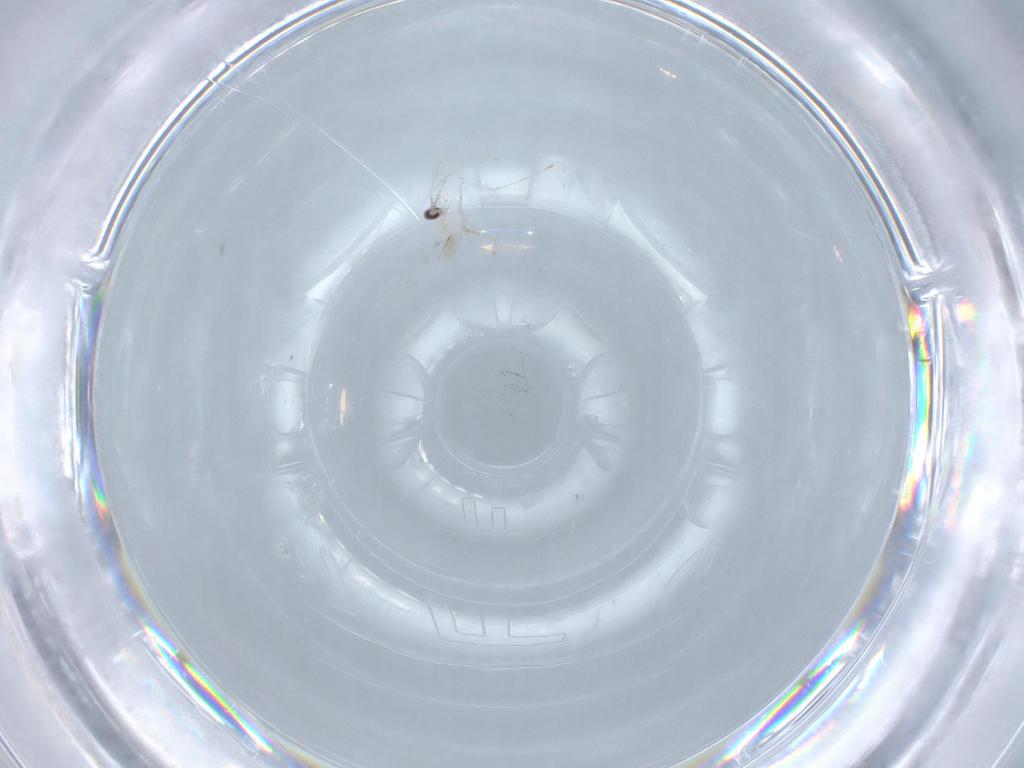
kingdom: Animalia
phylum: Arthropoda
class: Insecta
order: Diptera
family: Cecidomyiidae
